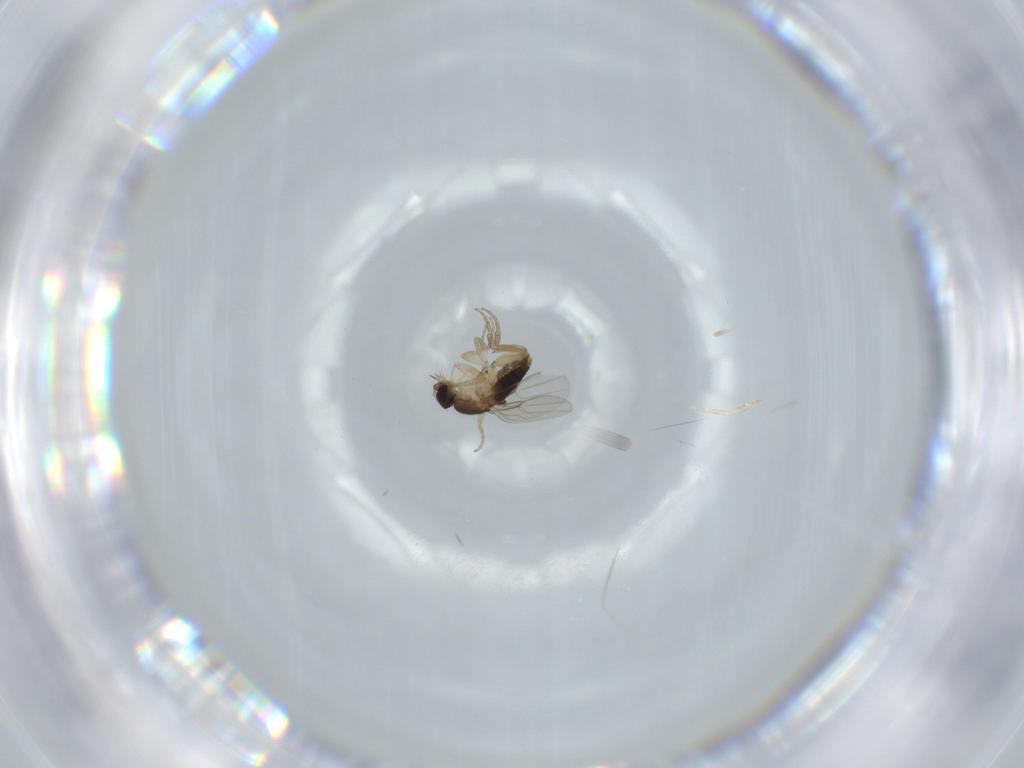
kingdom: Animalia
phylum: Arthropoda
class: Insecta
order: Diptera
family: Phoridae
